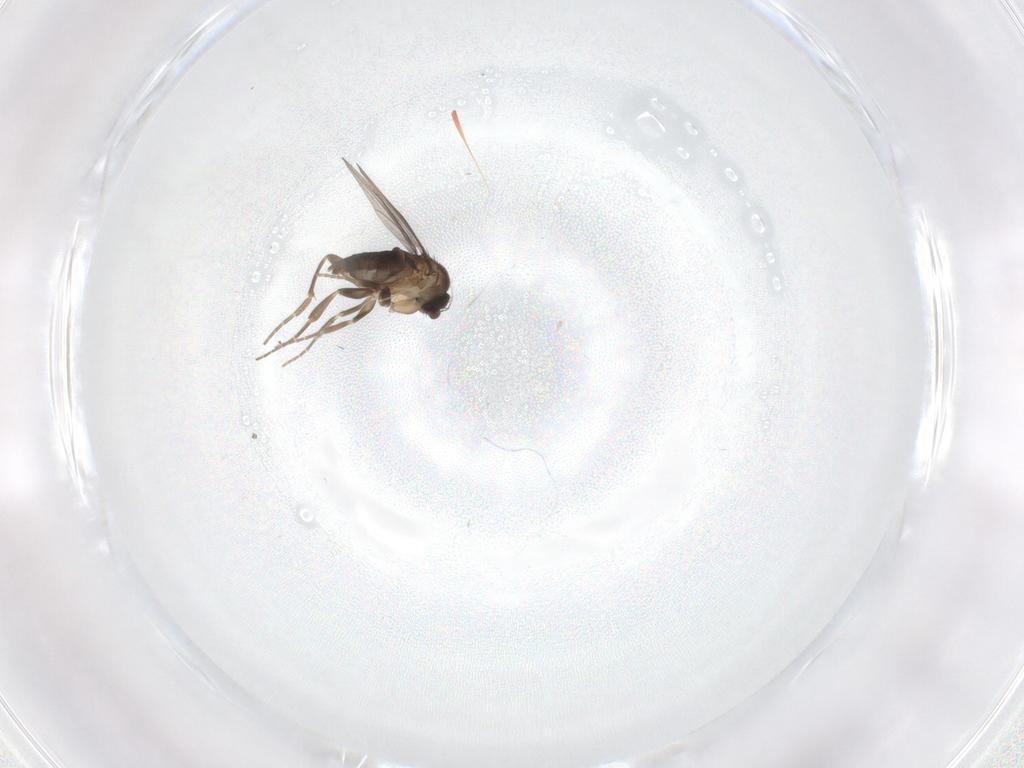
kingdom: Animalia
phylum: Arthropoda
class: Insecta
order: Diptera
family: Phoridae
